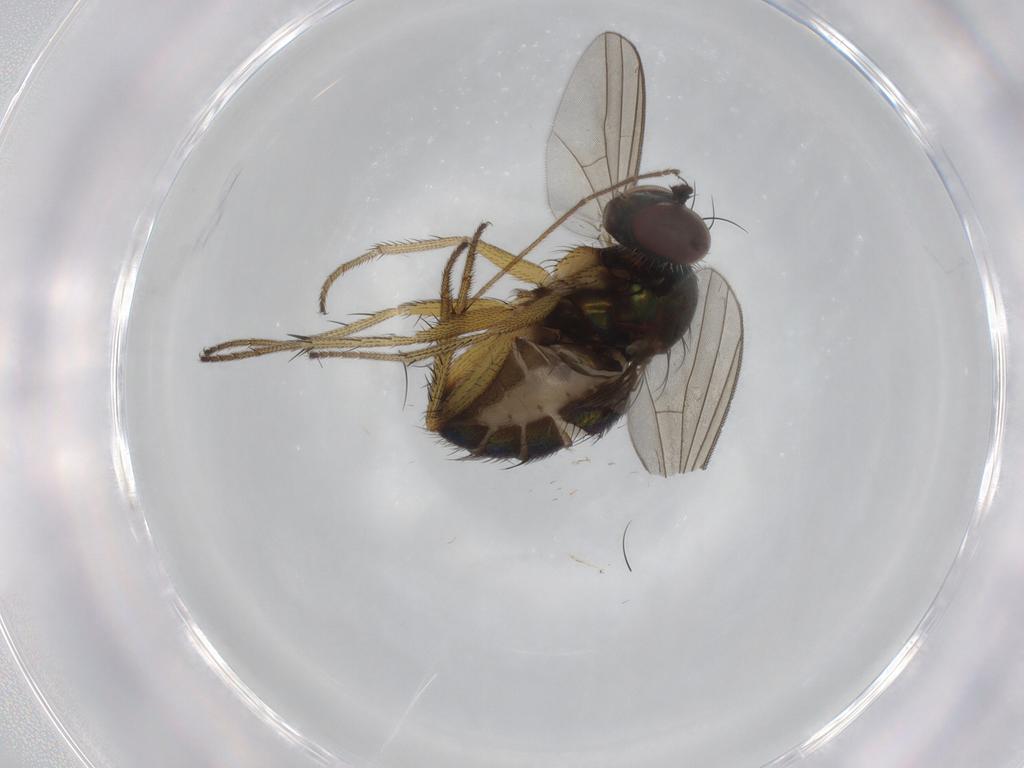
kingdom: Animalia
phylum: Arthropoda
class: Insecta
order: Diptera
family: Dolichopodidae
